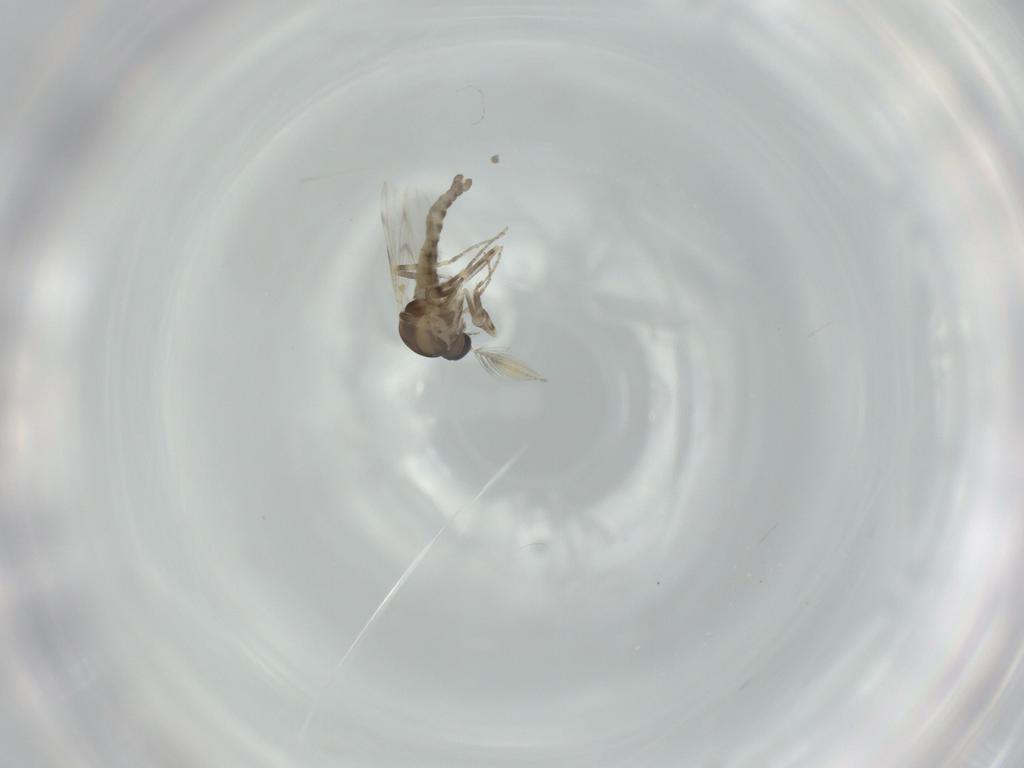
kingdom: Animalia
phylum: Arthropoda
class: Insecta
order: Diptera
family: Ceratopogonidae
